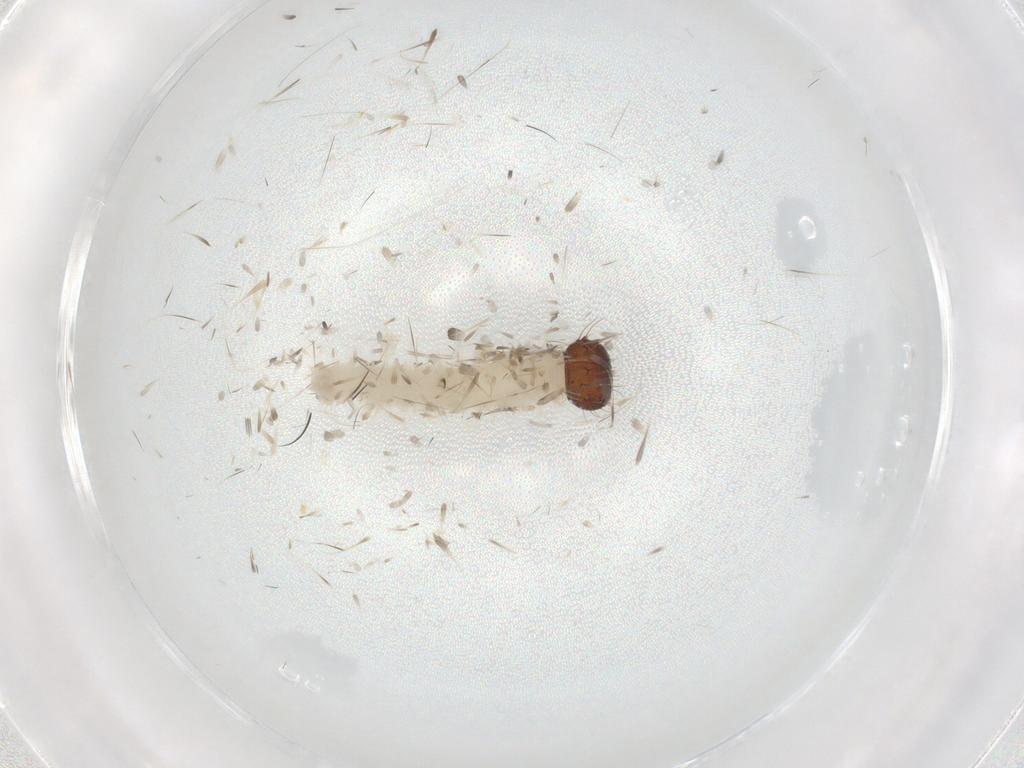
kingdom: Animalia
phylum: Arthropoda
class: Insecta
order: Lepidoptera
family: Nymphalidae
